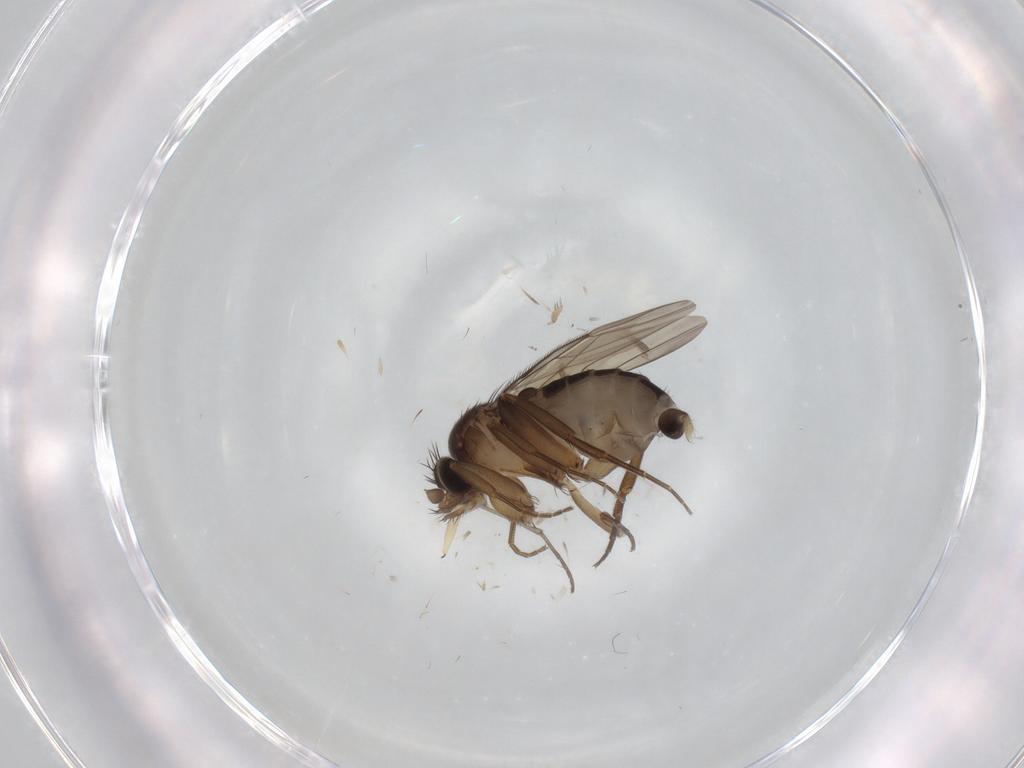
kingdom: Animalia
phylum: Arthropoda
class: Insecta
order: Diptera
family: Phoridae
